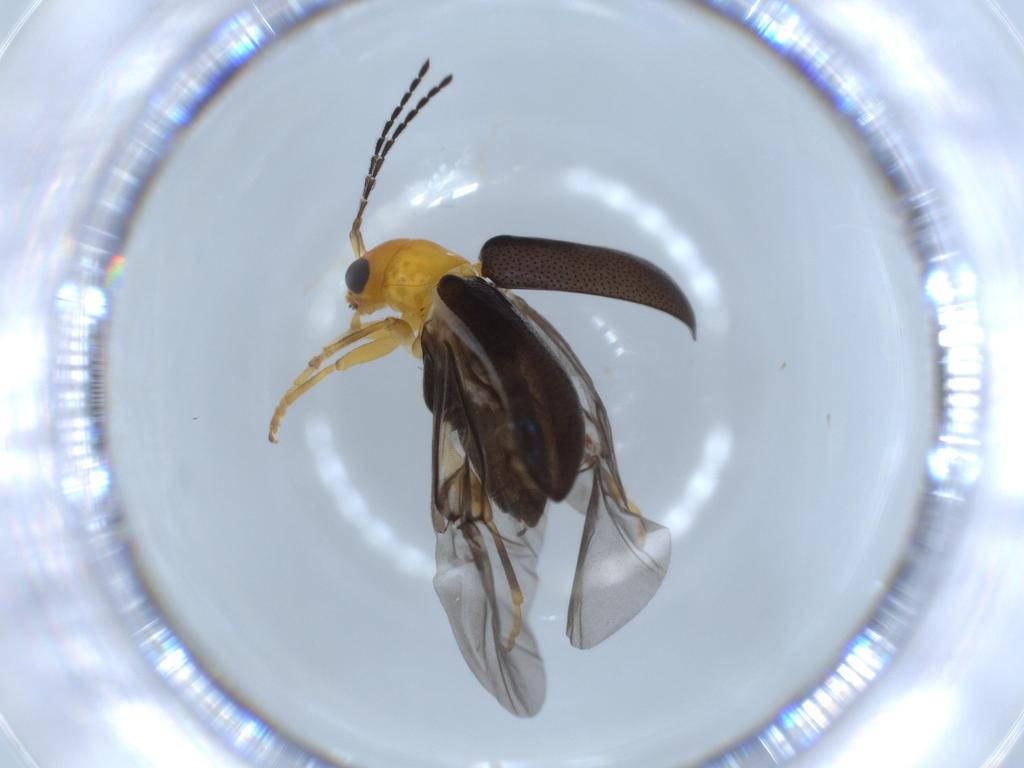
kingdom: Animalia
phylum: Arthropoda
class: Insecta
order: Coleoptera
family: Chrysomelidae
